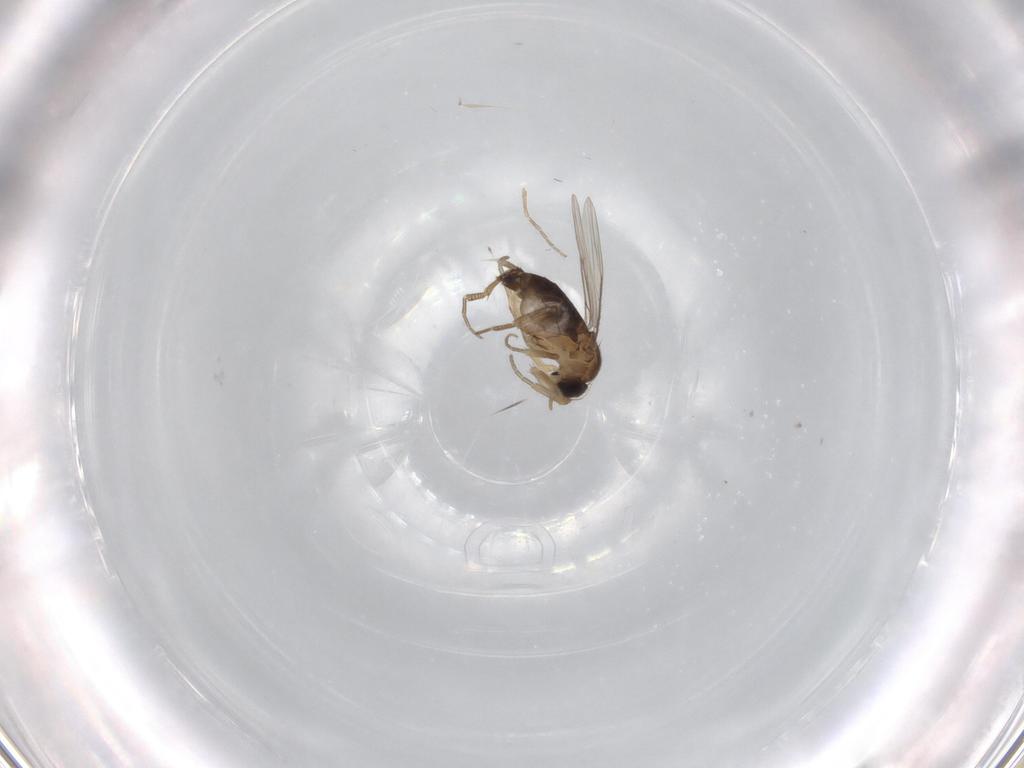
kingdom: Animalia
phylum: Arthropoda
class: Insecta
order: Diptera
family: Phoridae
